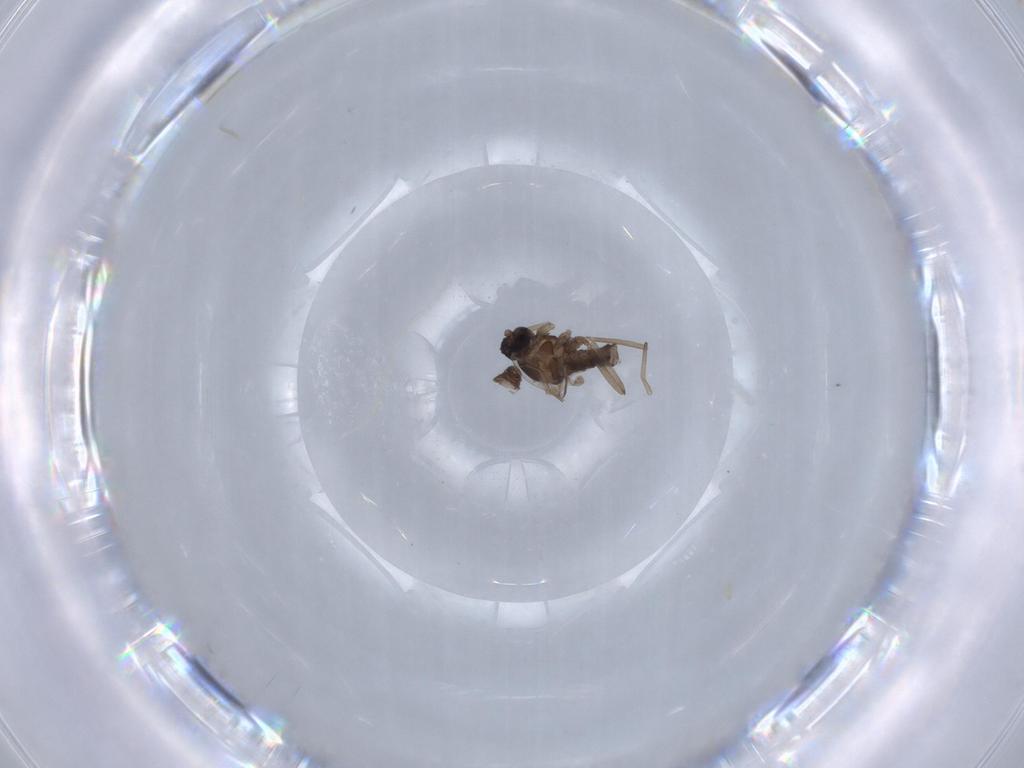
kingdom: Animalia
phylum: Arthropoda
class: Insecta
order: Diptera
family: Cecidomyiidae
